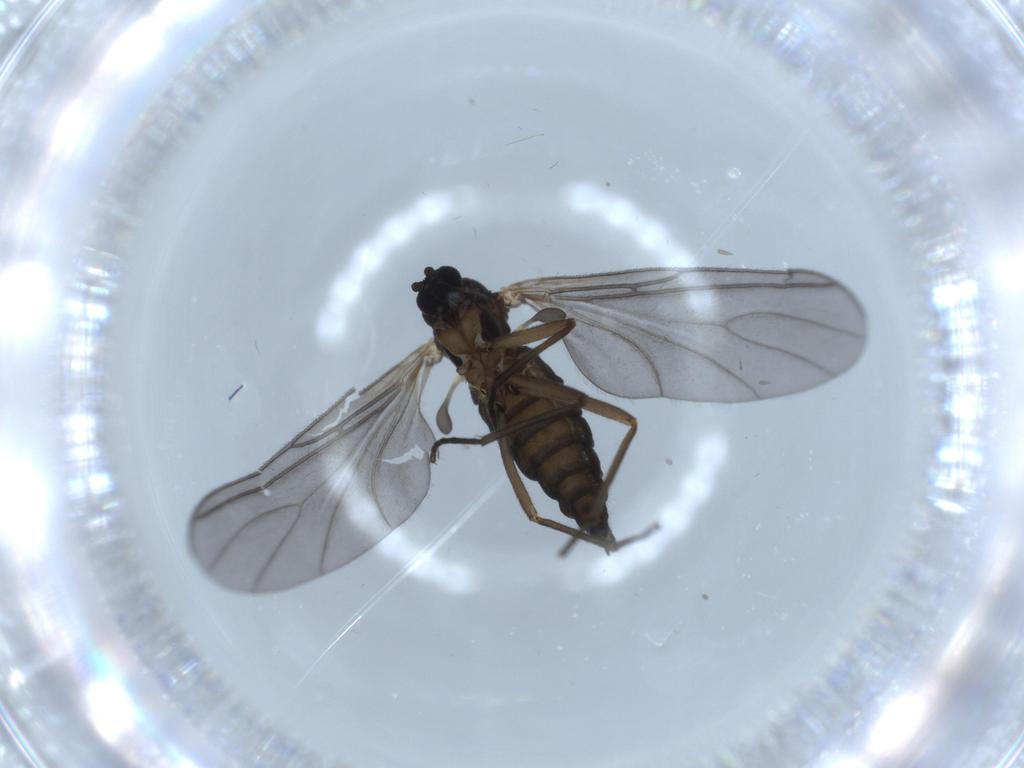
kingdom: Animalia
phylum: Arthropoda
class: Insecta
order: Diptera
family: Sciaridae
